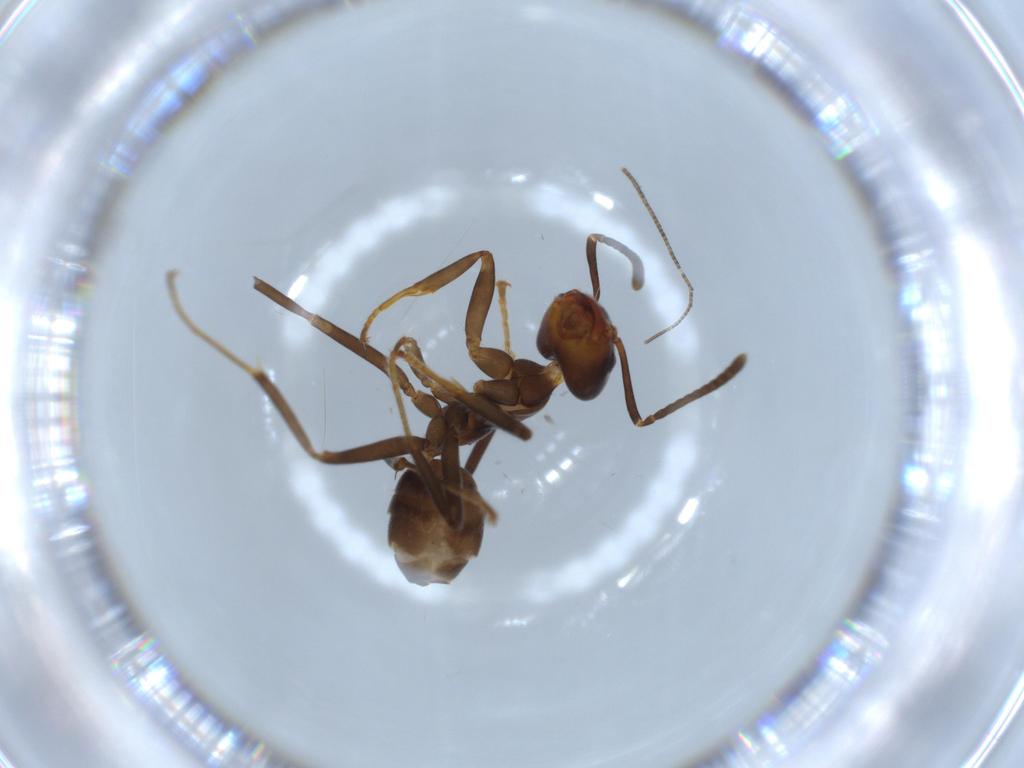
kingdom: Animalia
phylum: Arthropoda
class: Insecta
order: Hymenoptera
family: Formicidae
